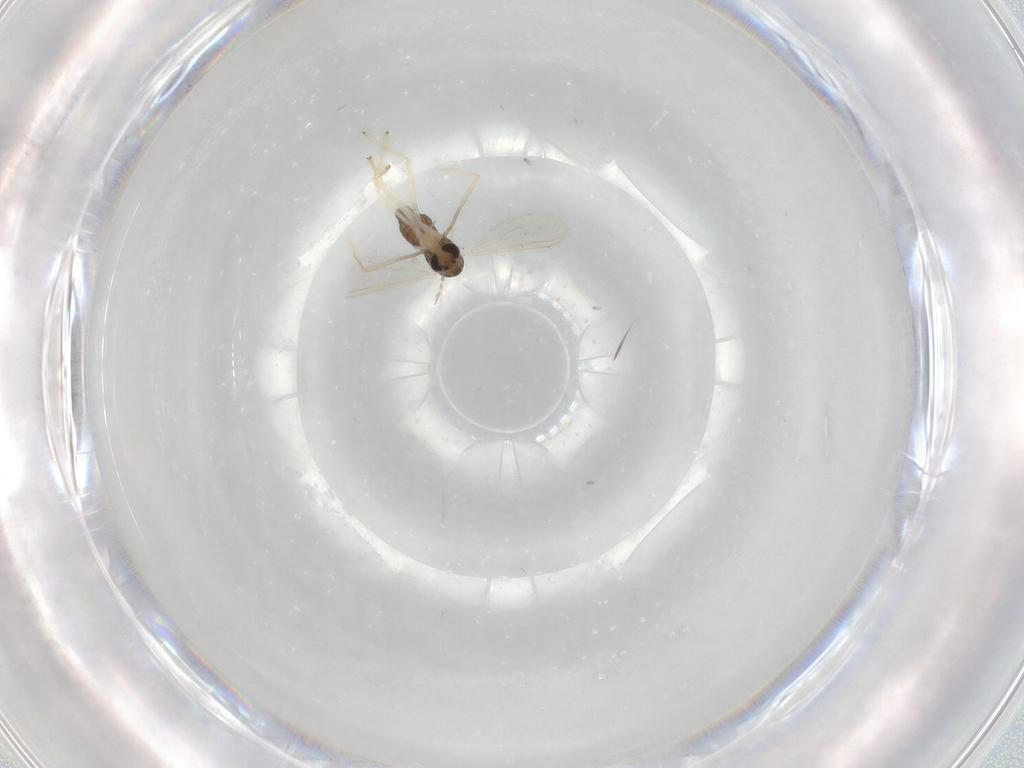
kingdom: Animalia
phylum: Arthropoda
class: Insecta
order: Diptera
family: Chironomidae
